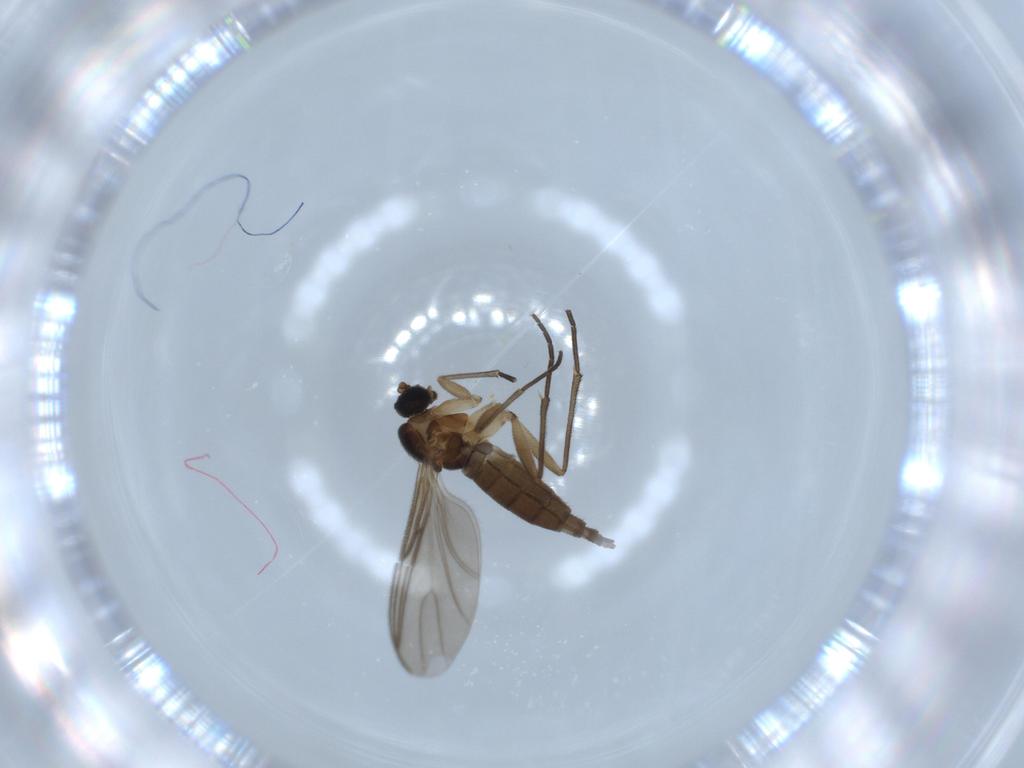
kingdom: Animalia
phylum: Arthropoda
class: Insecta
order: Diptera
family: Sciaridae
